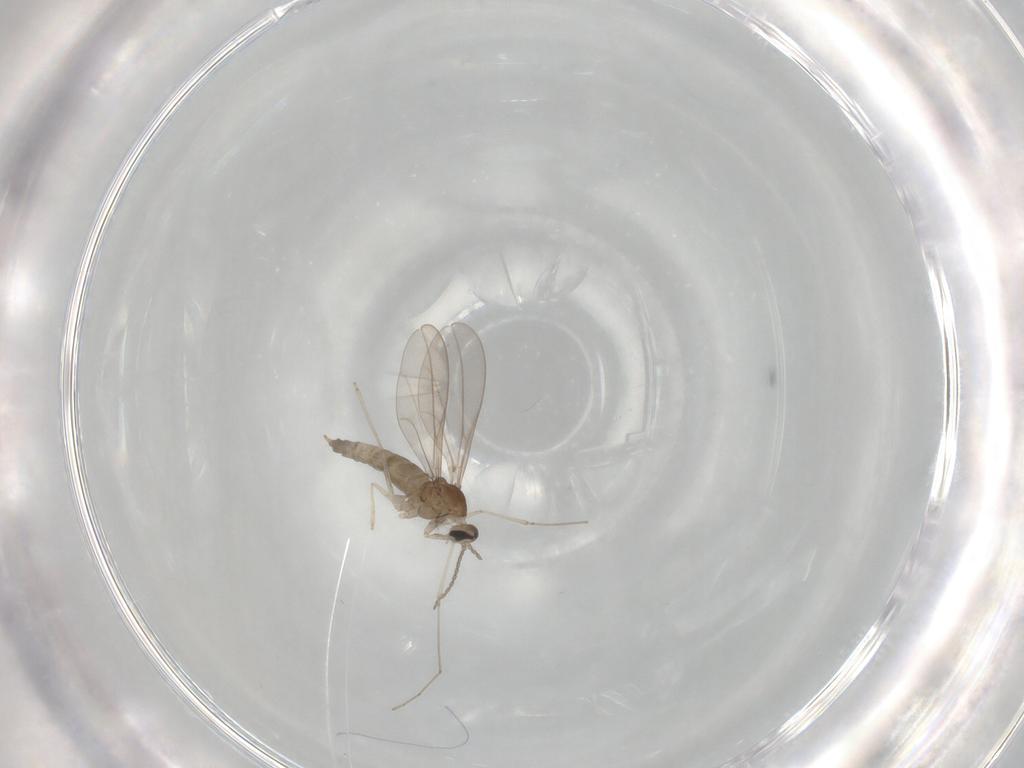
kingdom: Animalia
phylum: Arthropoda
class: Insecta
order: Diptera
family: Cecidomyiidae
